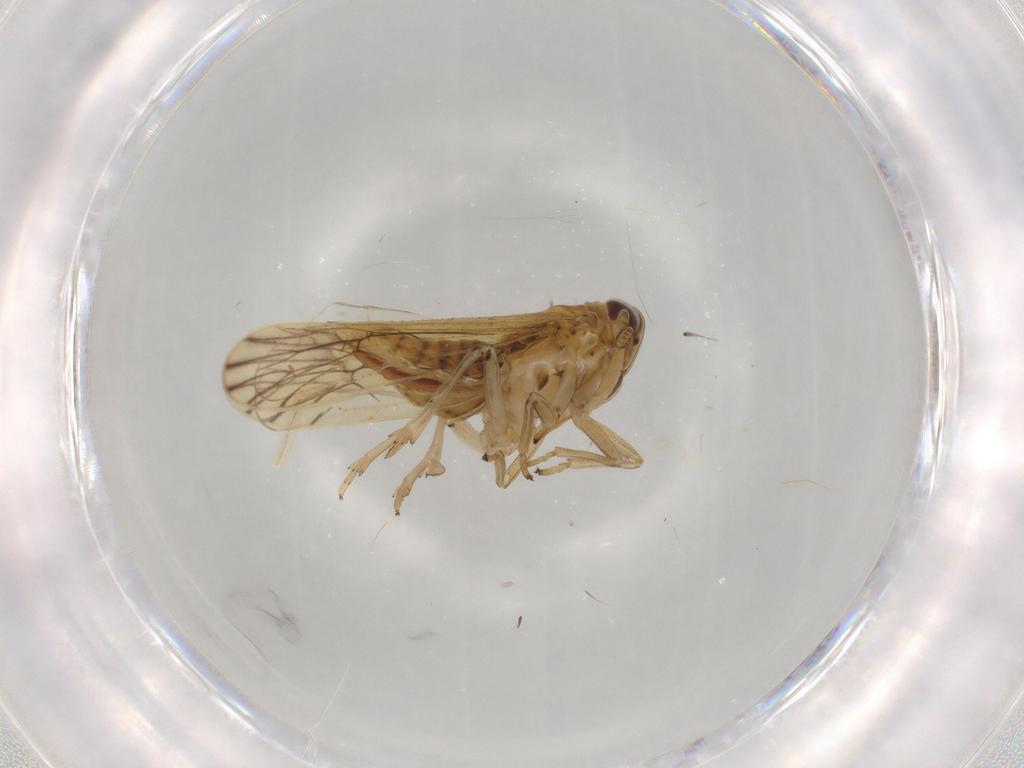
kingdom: Animalia
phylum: Arthropoda
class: Insecta
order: Hemiptera
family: Delphacidae
